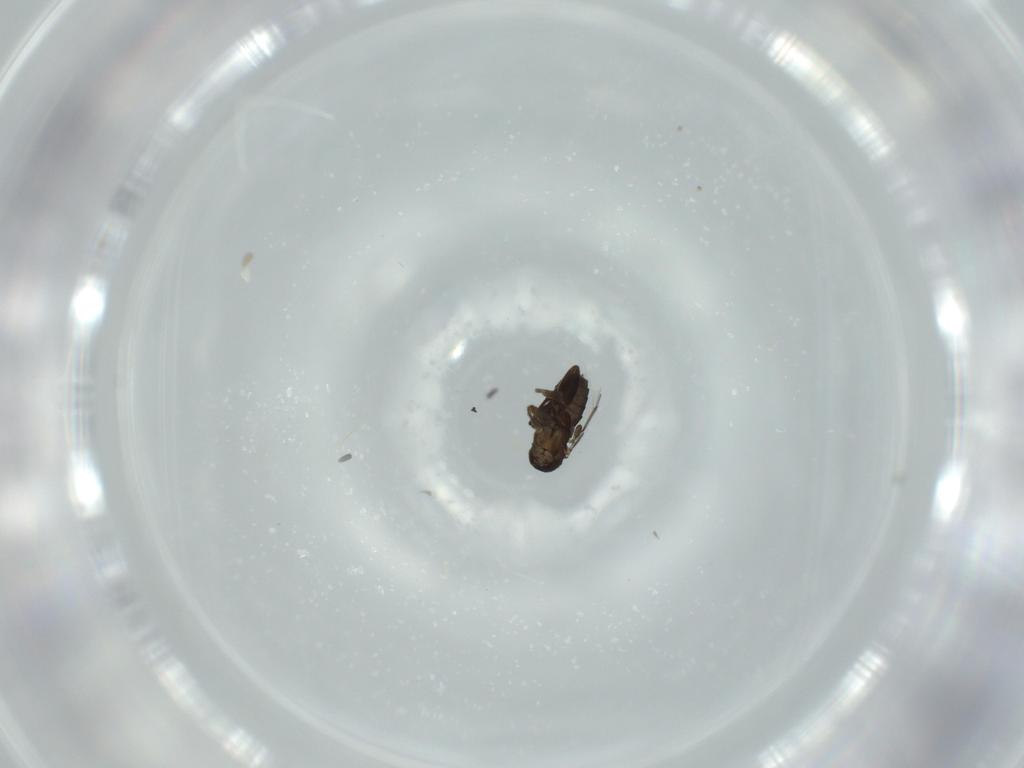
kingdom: Animalia
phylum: Arthropoda
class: Insecta
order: Diptera
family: Phoridae
